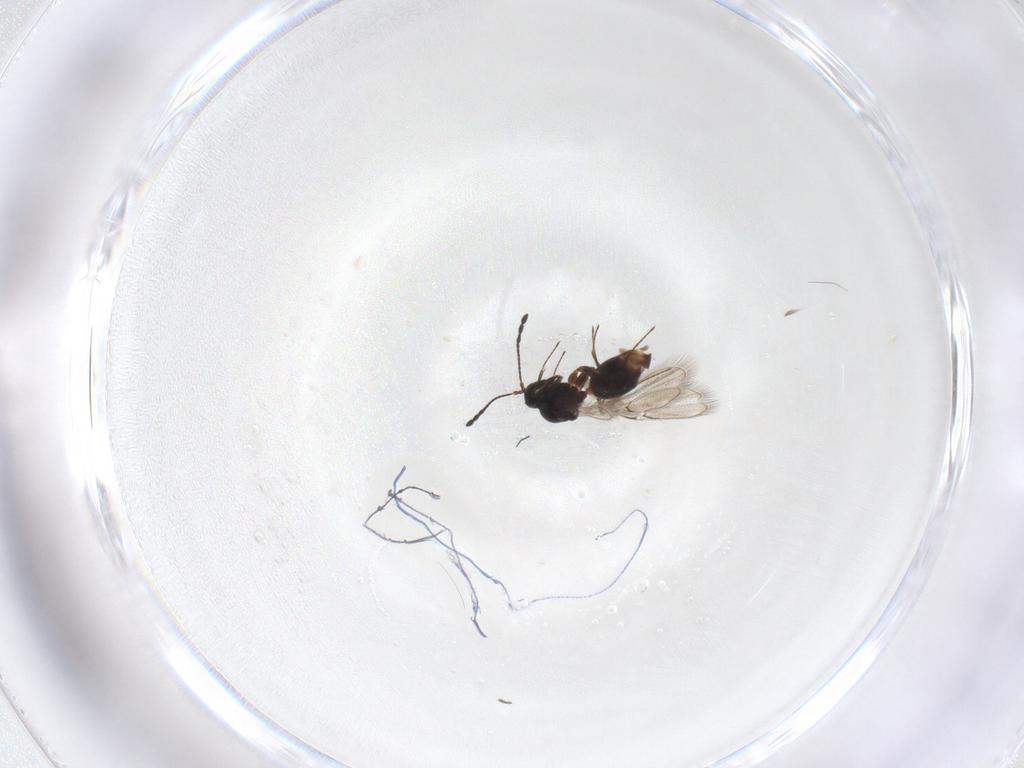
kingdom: Animalia
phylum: Arthropoda
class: Insecta
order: Hymenoptera
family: Figitidae
